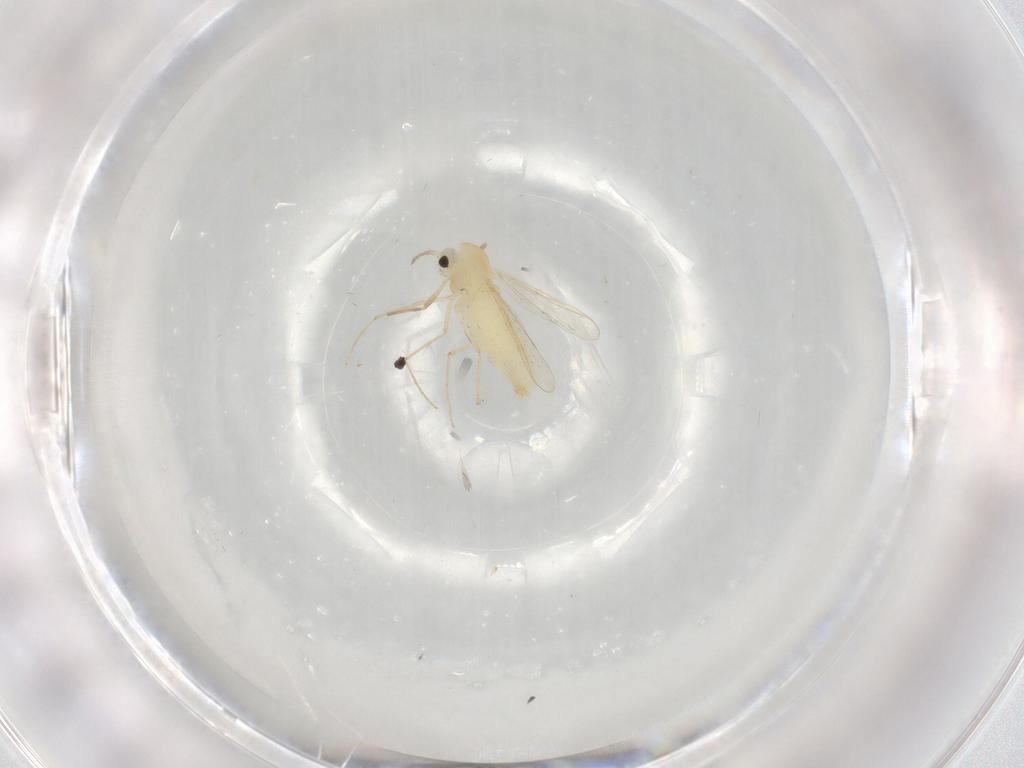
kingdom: Animalia
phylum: Arthropoda
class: Insecta
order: Diptera
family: Chironomidae
